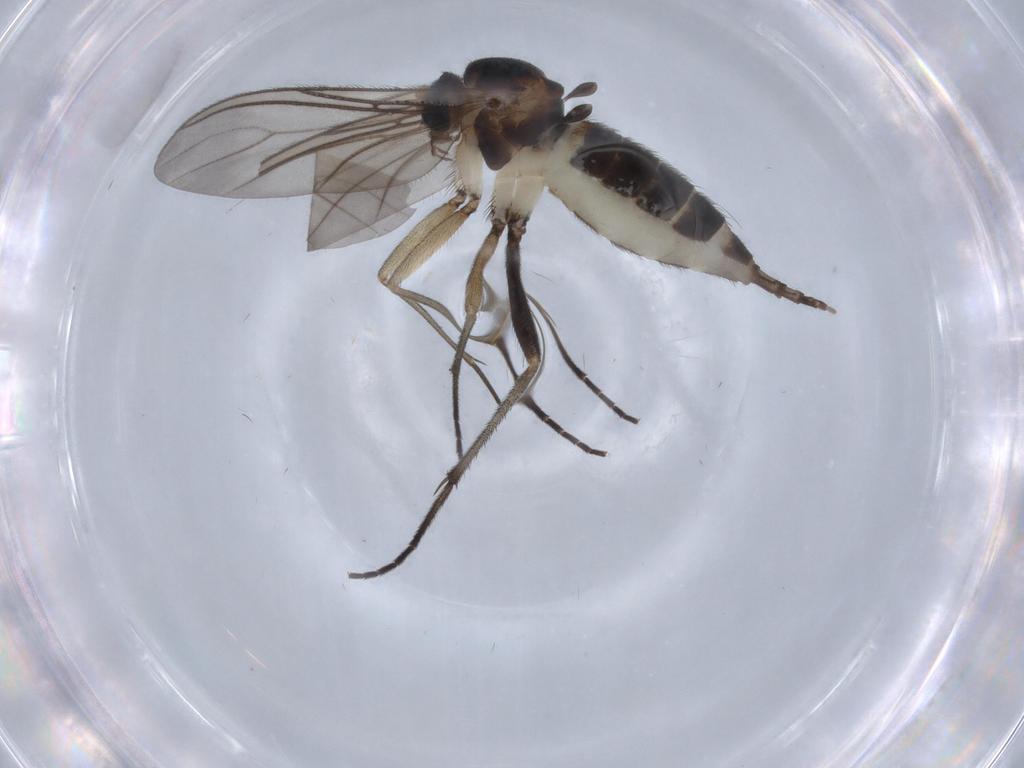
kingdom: Animalia
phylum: Arthropoda
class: Insecta
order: Diptera
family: Sciaridae
